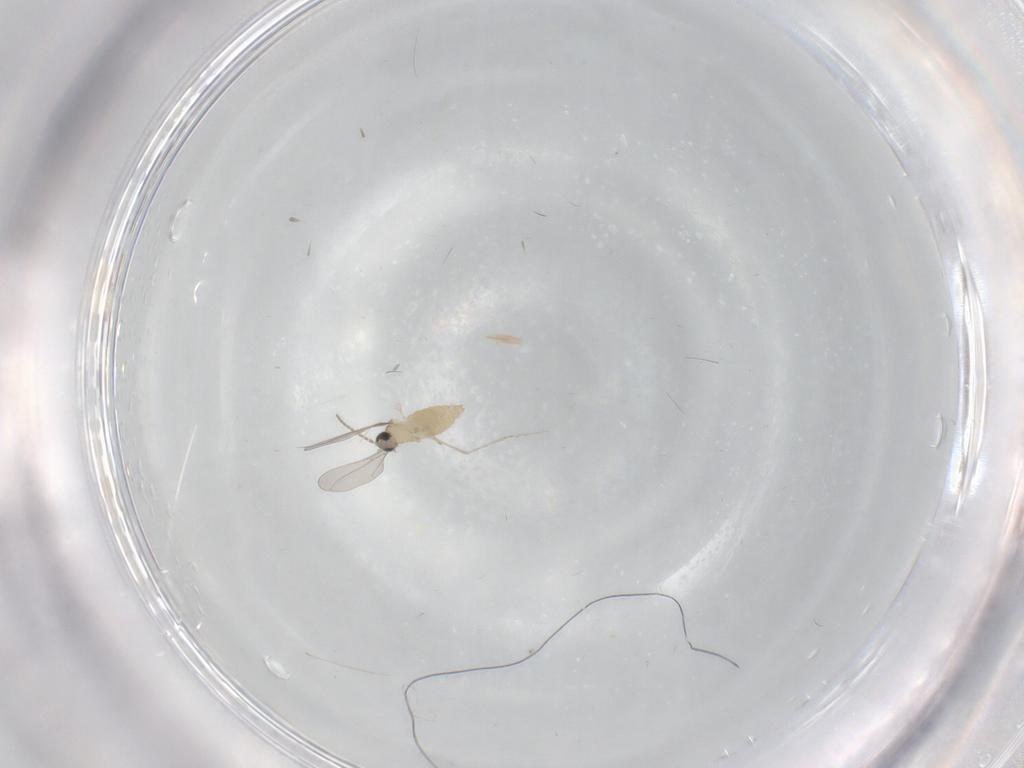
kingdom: Animalia
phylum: Arthropoda
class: Insecta
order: Diptera
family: Cecidomyiidae
